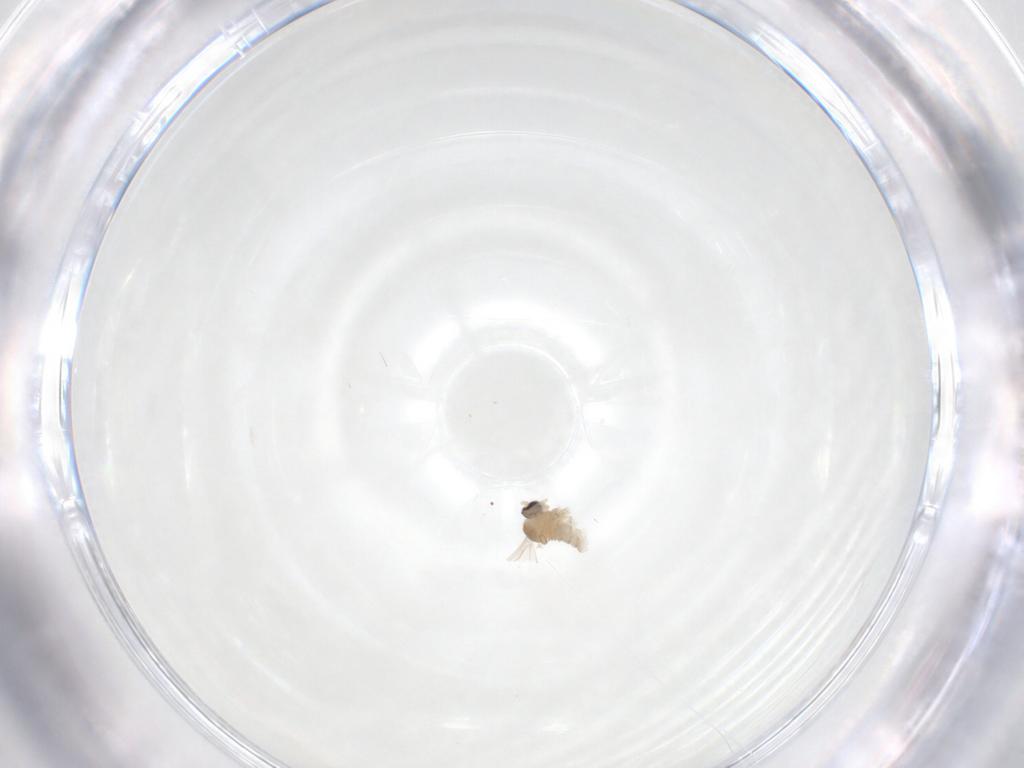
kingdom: Animalia
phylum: Arthropoda
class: Insecta
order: Diptera
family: Cecidomyiidae
